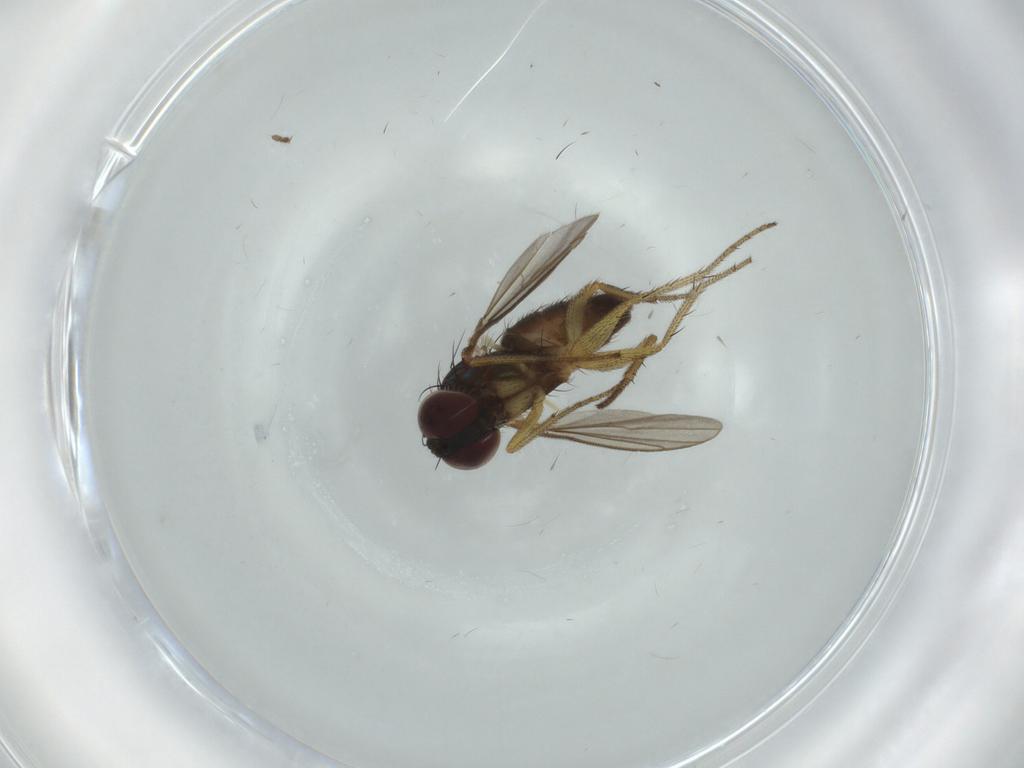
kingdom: Animalia
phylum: Arthropoda
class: Insecta
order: Diptera
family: Dolichopodidae
